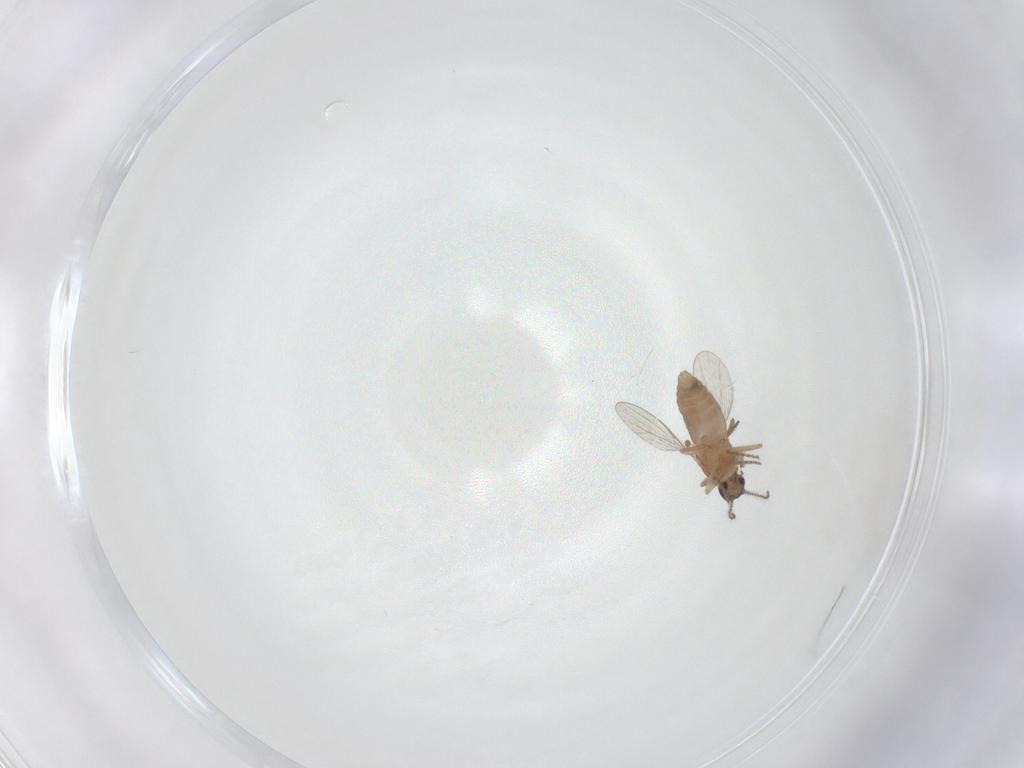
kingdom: Animalia
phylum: Arthropoda
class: Insecta
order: Diptera
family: Ceratopogonidae
